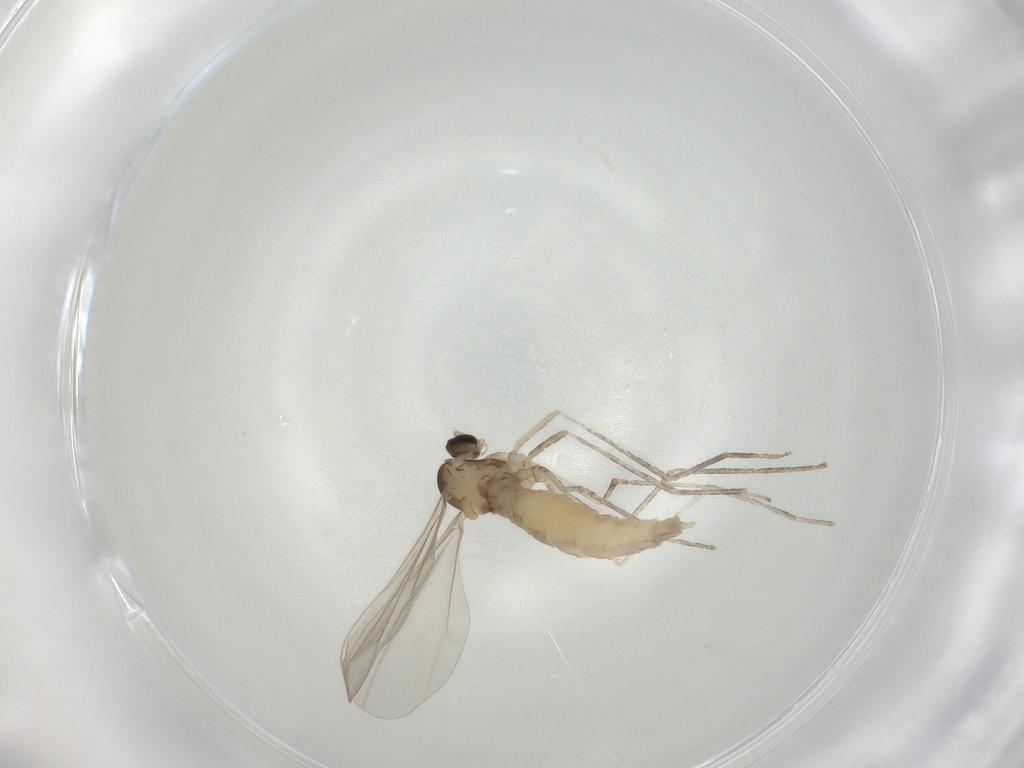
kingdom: Animalia
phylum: Arthropoda
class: Insecta
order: Diptera
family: Cecidomyiidae
